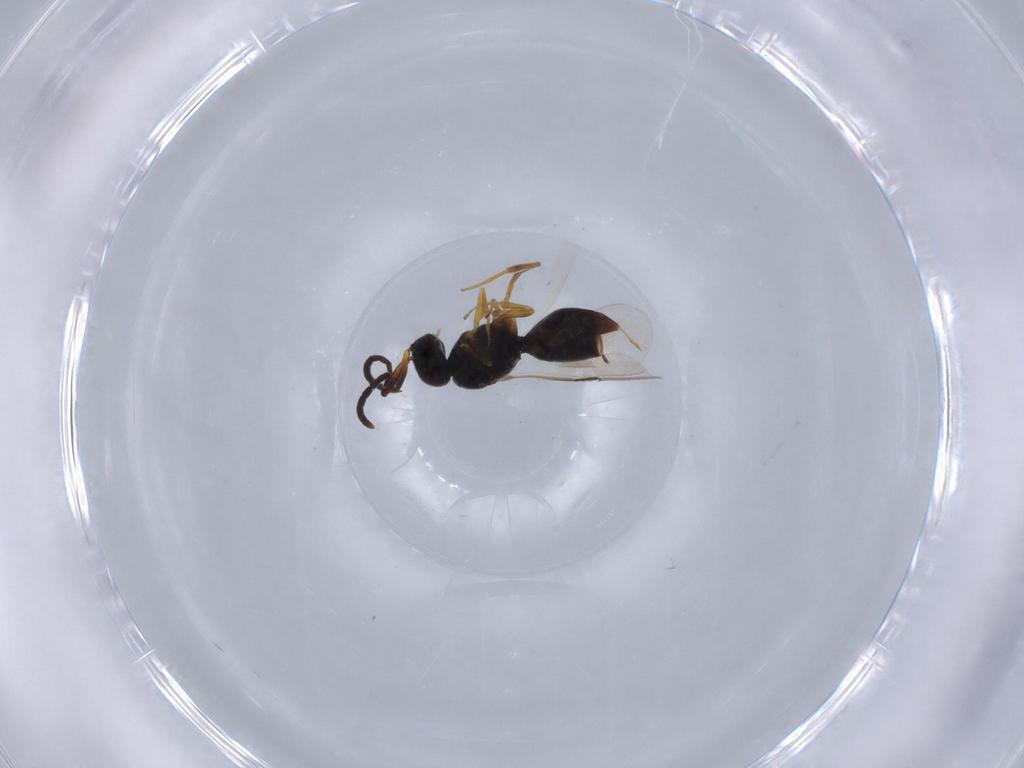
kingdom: Animalia
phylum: Arthropoda
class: Insecta
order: Hymenoptera
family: Megaspilidae
